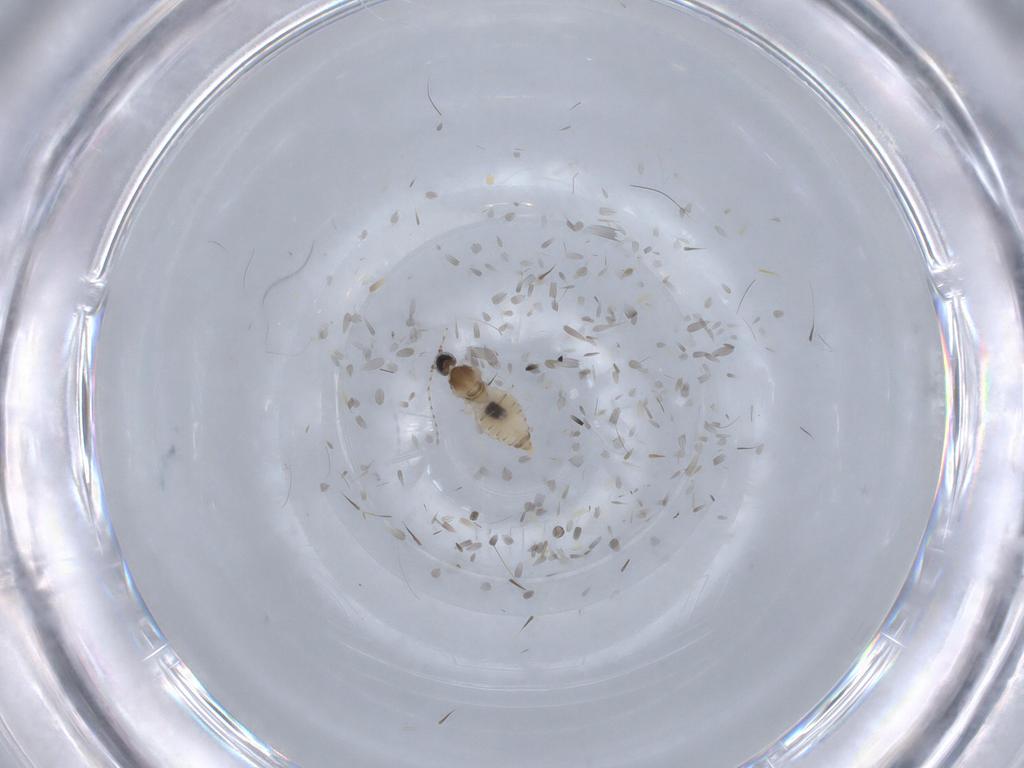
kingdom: Animalia
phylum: Arthropoda
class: Insecta
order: Diptera
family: Cecidomyiidae
